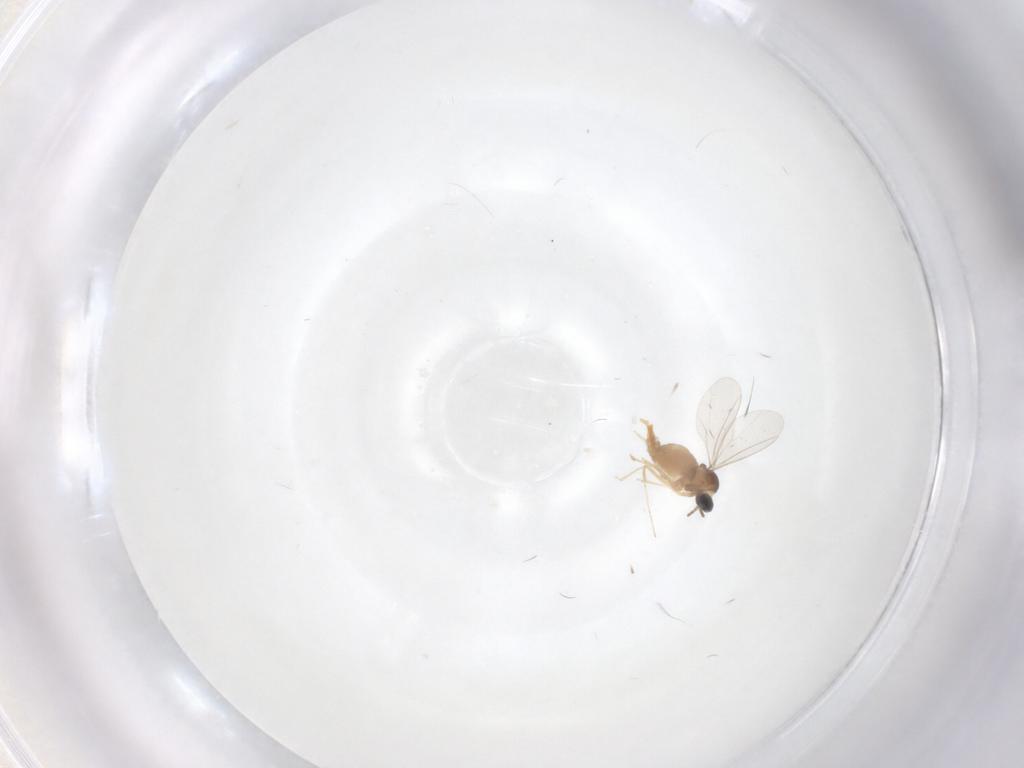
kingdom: Animalia
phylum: Arthropoda
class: Insecta
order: Diptera
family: Cecidomyiidae
